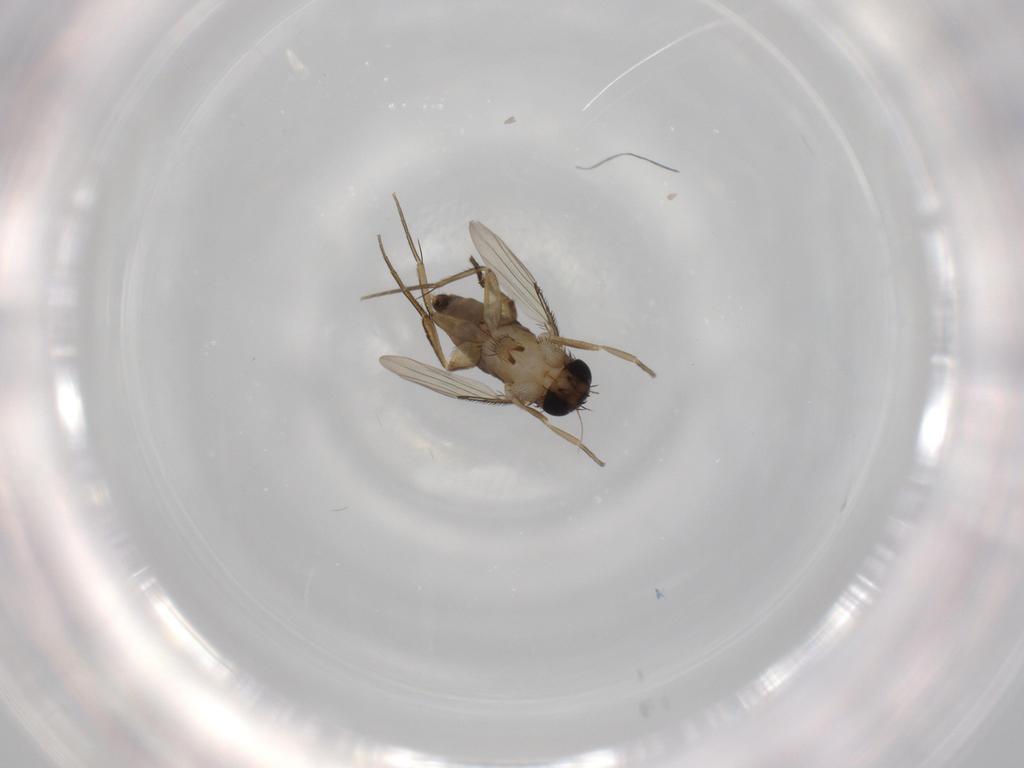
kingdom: Animalia
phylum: Arthropoda
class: Insecta
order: Diptera
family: Phoridae
